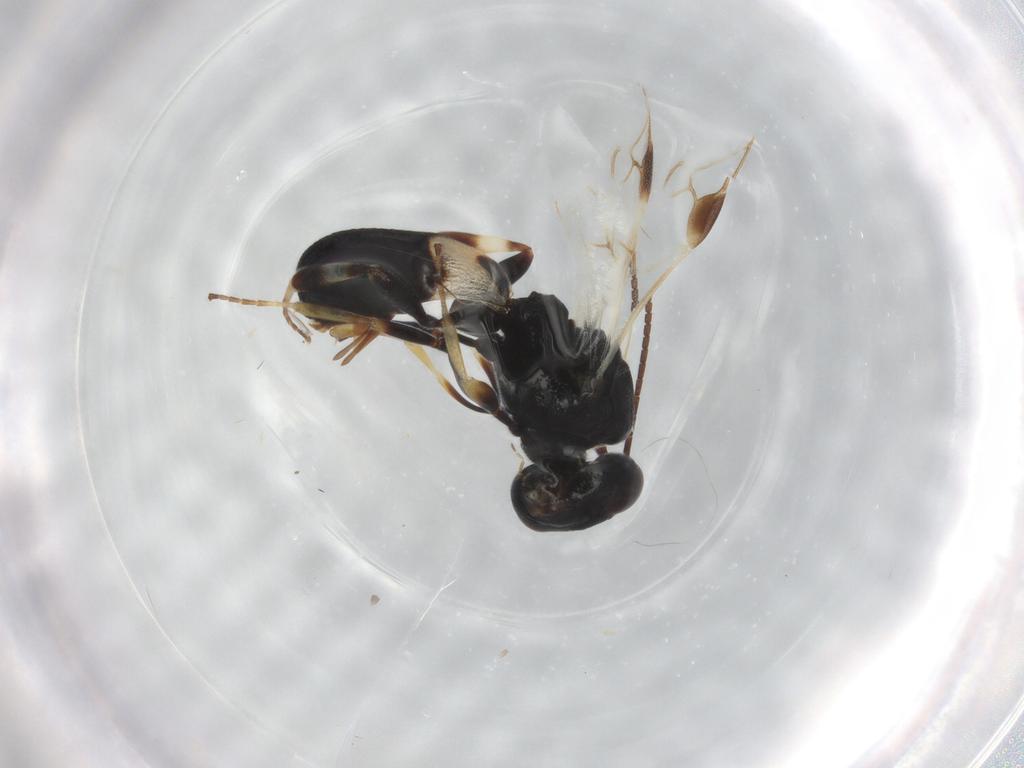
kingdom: Animalia
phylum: Arthropoda
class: Insecta
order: Hymenoptera
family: Braconidae
